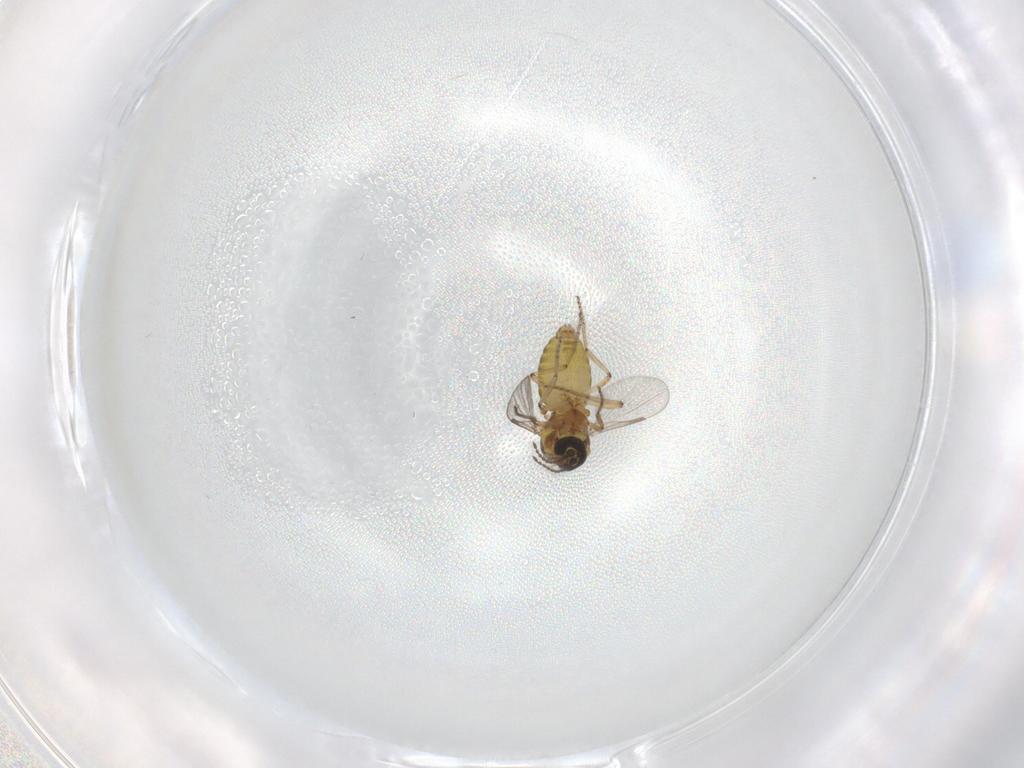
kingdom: Animalia
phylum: Arthropoda
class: Insecta
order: Diptera
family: Ceratopogonidae
